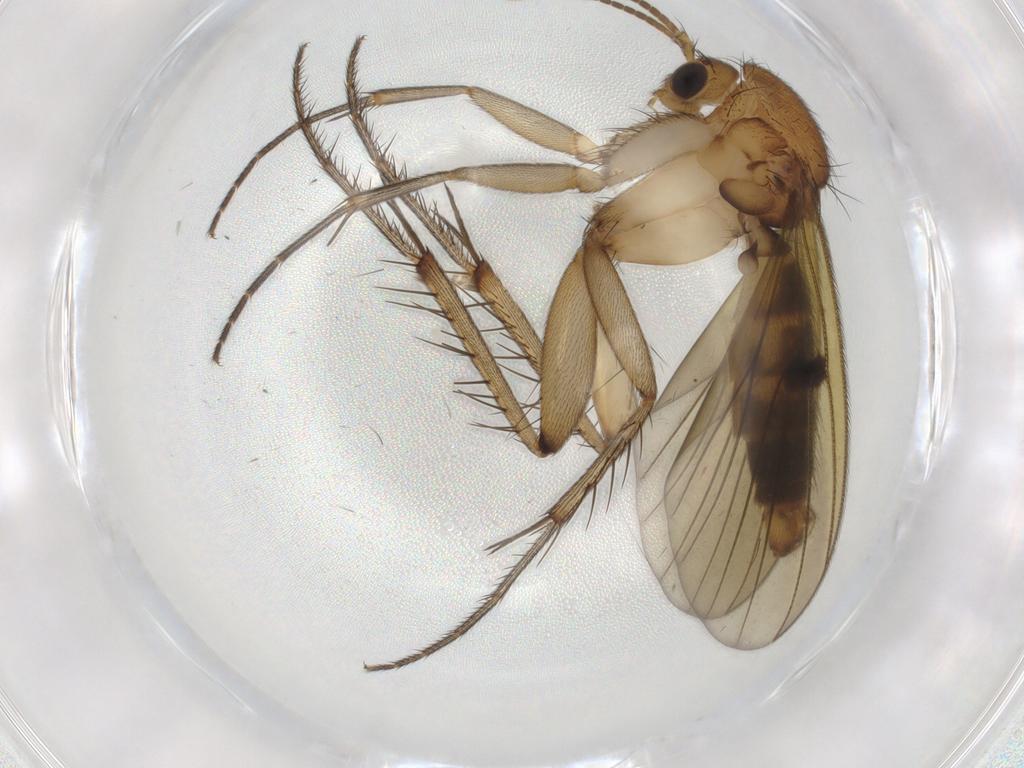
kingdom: Animalia
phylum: Arthropoda
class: Insecta
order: Diptera
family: Mycetophilidae
